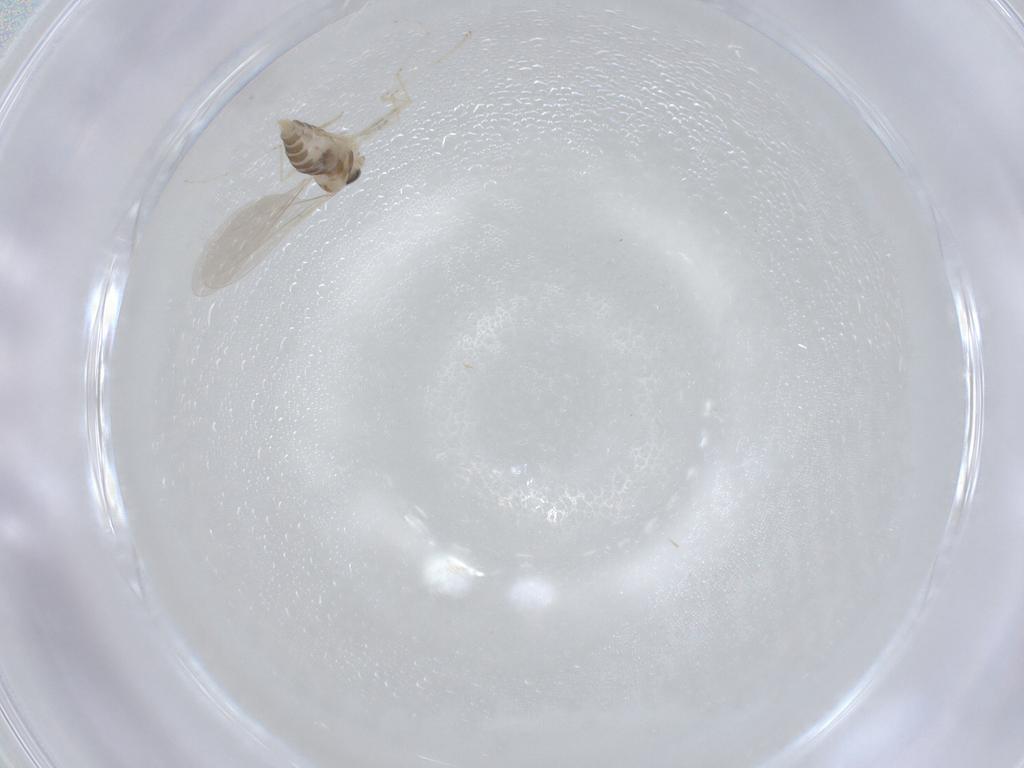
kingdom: Animalia
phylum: Arthropoda
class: Insecta
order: Diptera
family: Cecidomyiidae
